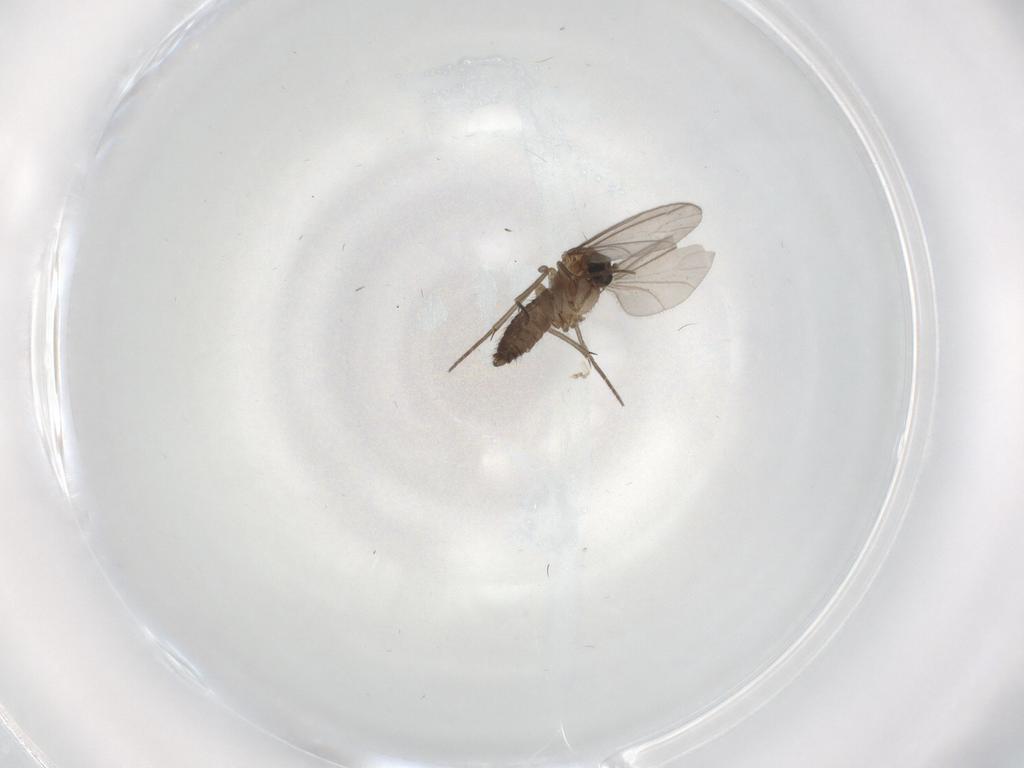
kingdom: Animalia
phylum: Arthropoda
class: Insecta
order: Diptera
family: Sciaridae
